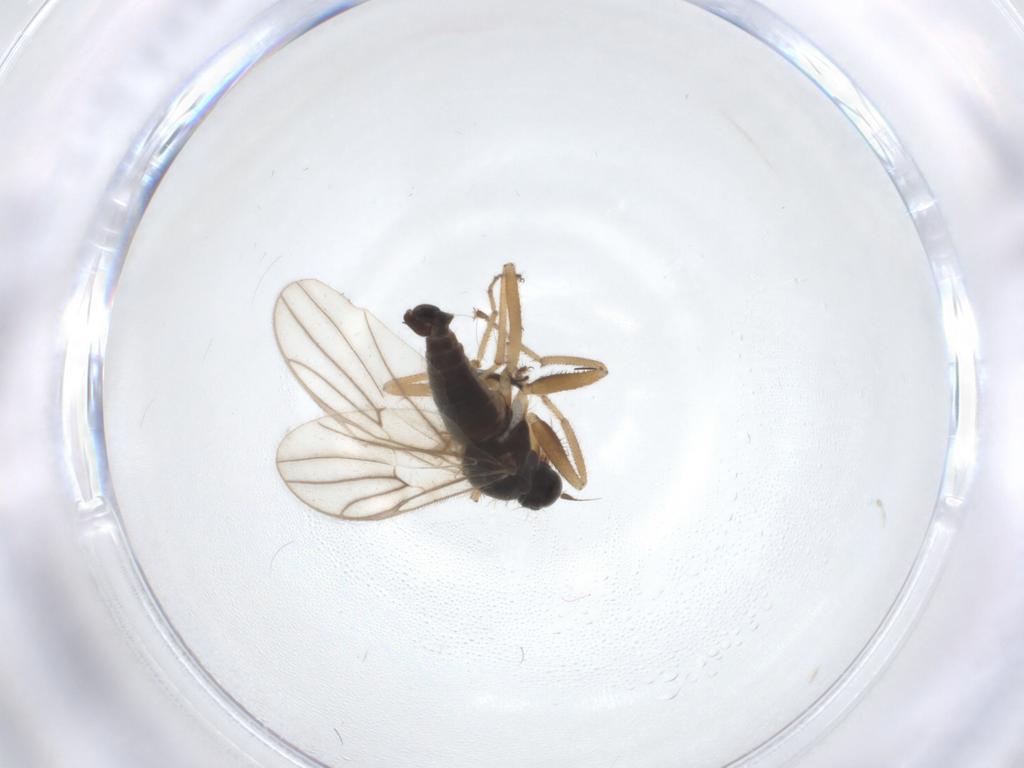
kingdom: Animalia
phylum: Arthropoda
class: Insecta
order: Diptera
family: Hybotidae
